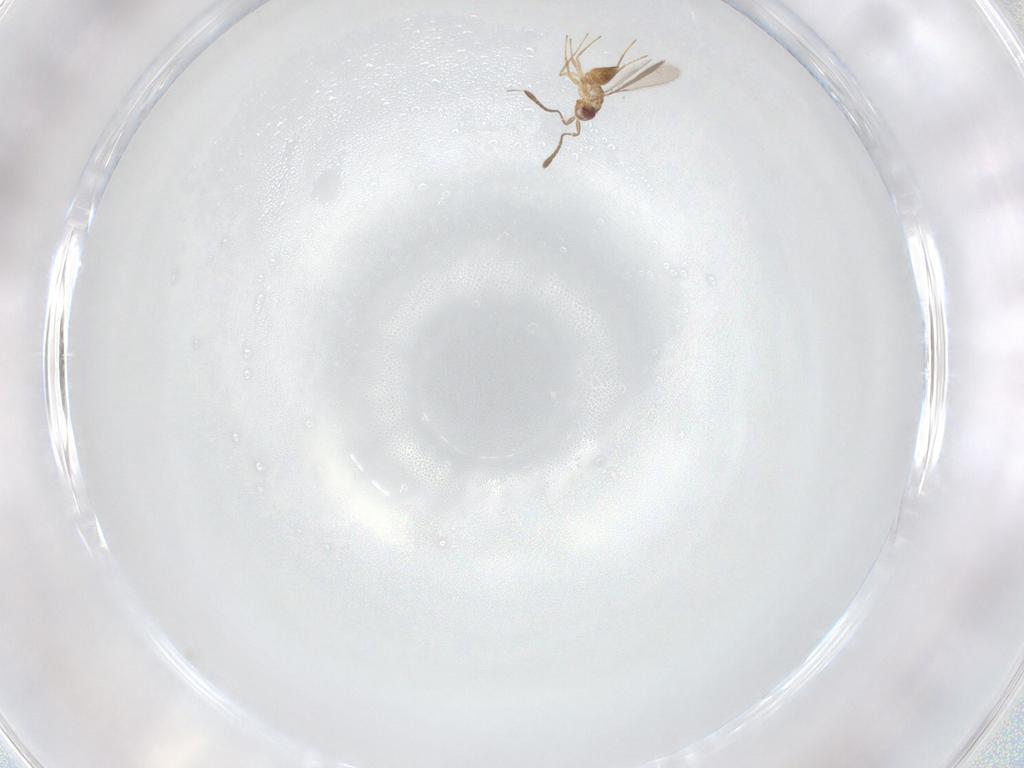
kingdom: Animalia
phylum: Arthropoda
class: Insecta
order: Hymenoptera
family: Mymaridae
